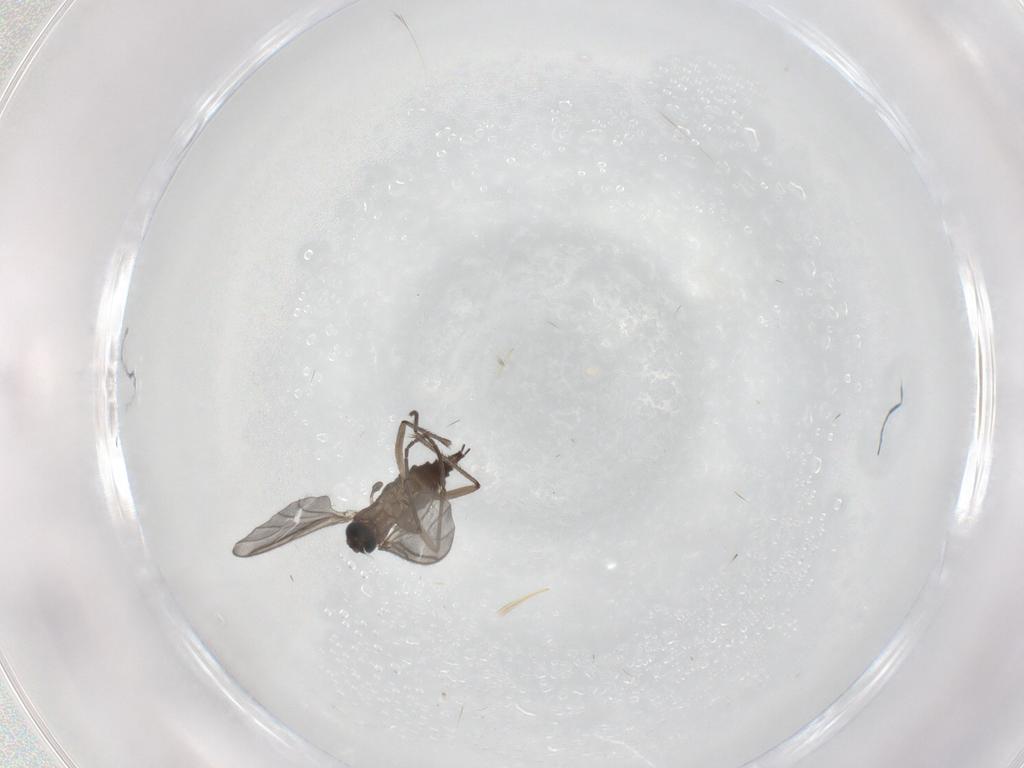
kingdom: Animalia
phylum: Arthropoda
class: Insecta
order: Diptera
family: Sciaridae
